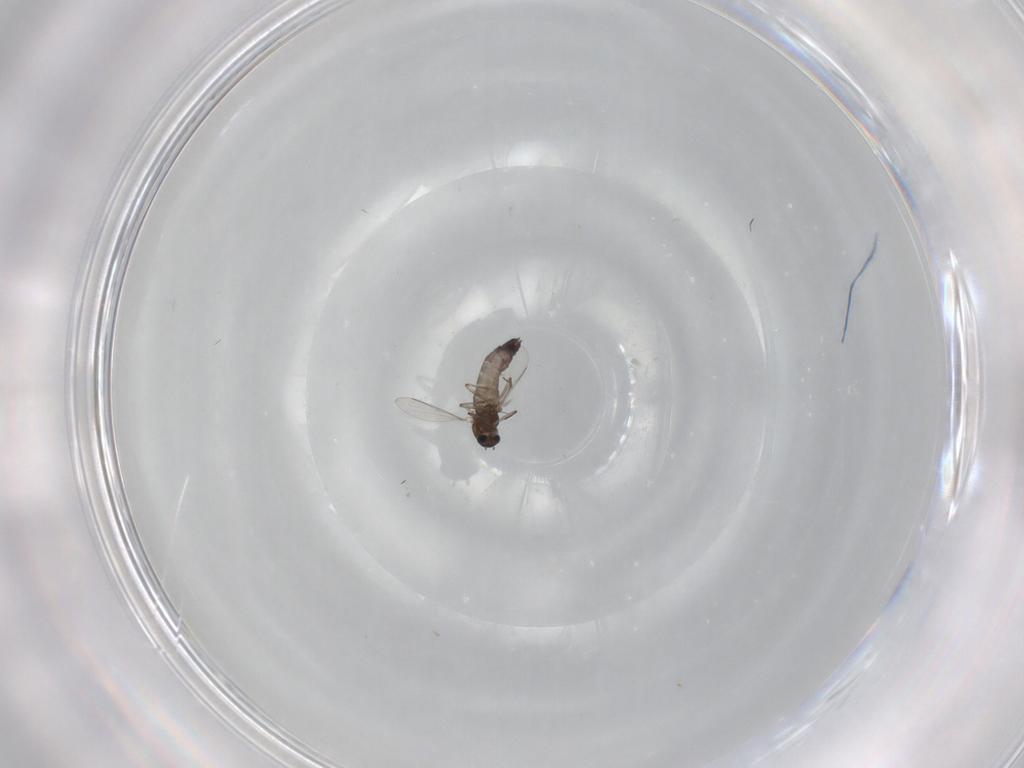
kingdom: Animalia
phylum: Arthropoda
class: Insecta
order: Diptera
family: Chironomidae
